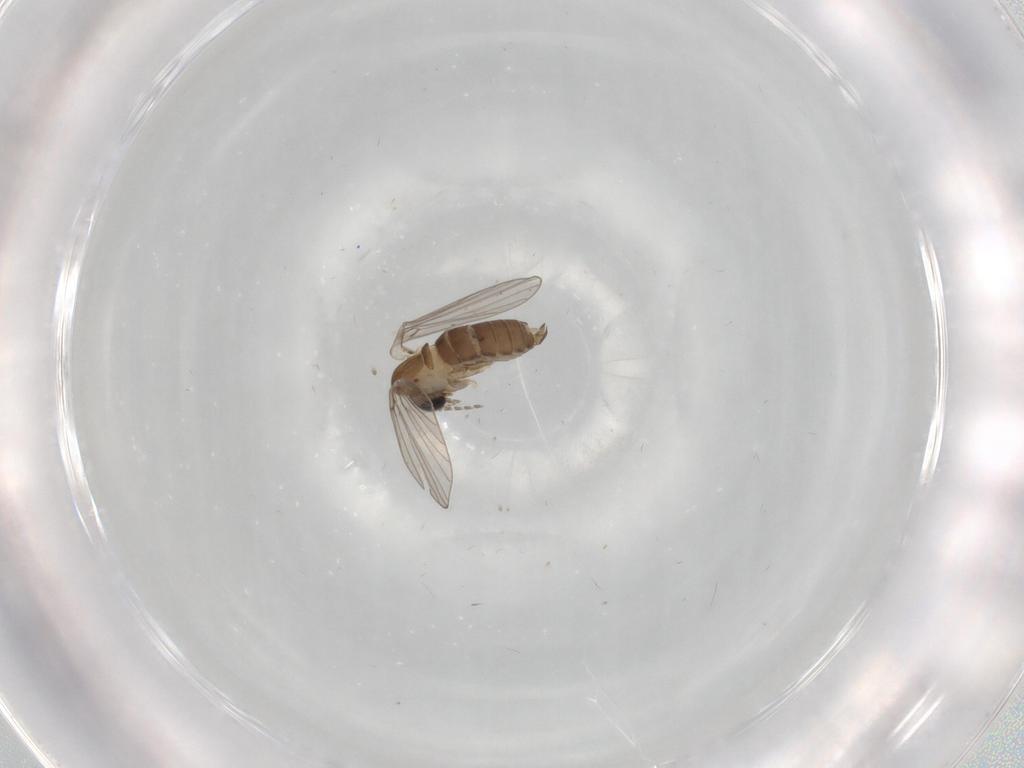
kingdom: Animalia
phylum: Arthropoda
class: Insecta
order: Diptera
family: Psychodidae
